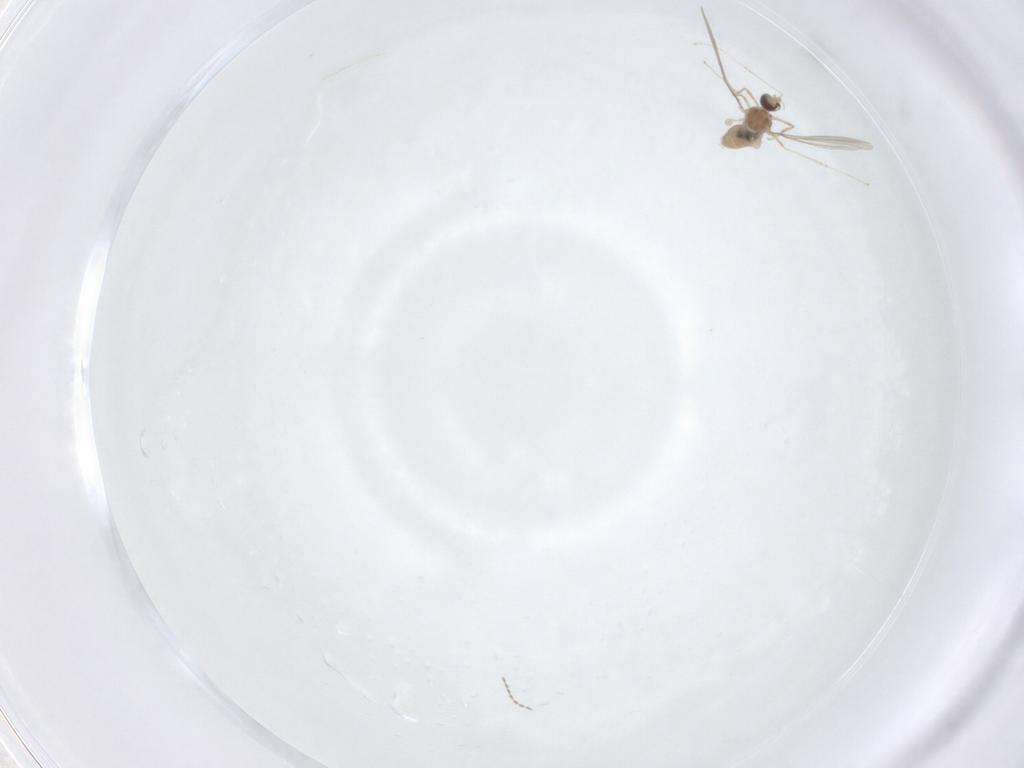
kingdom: Animalia
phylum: Arthropoda
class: Insecta
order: Diptera
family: Cecidomyiidae
